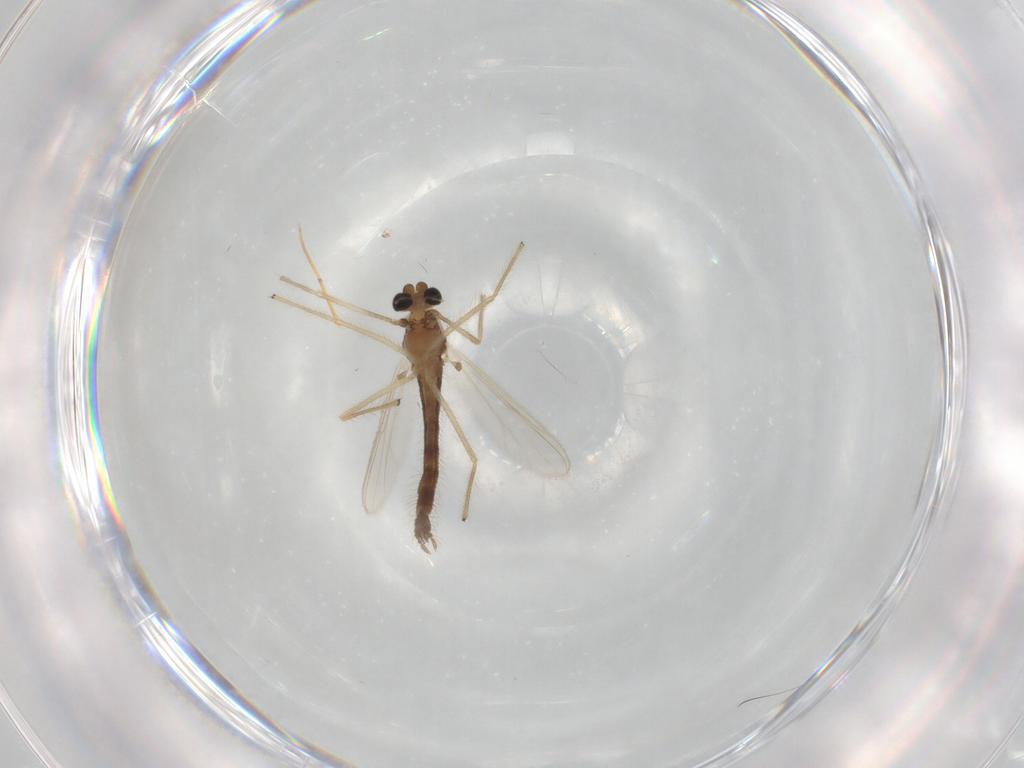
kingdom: Animalia
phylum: Arthropoda
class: Insecta
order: Diptera
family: Chironomidae
